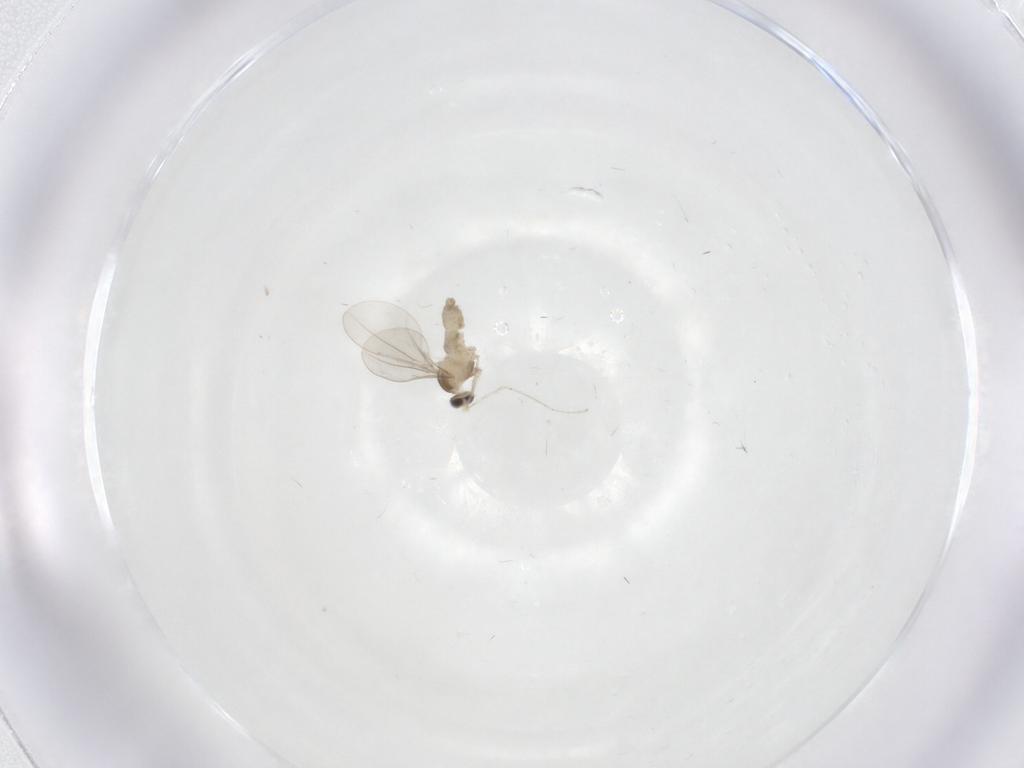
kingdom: Animalia
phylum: Arthropoda
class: Insecta
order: Diptera
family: Cecidomyiidae
